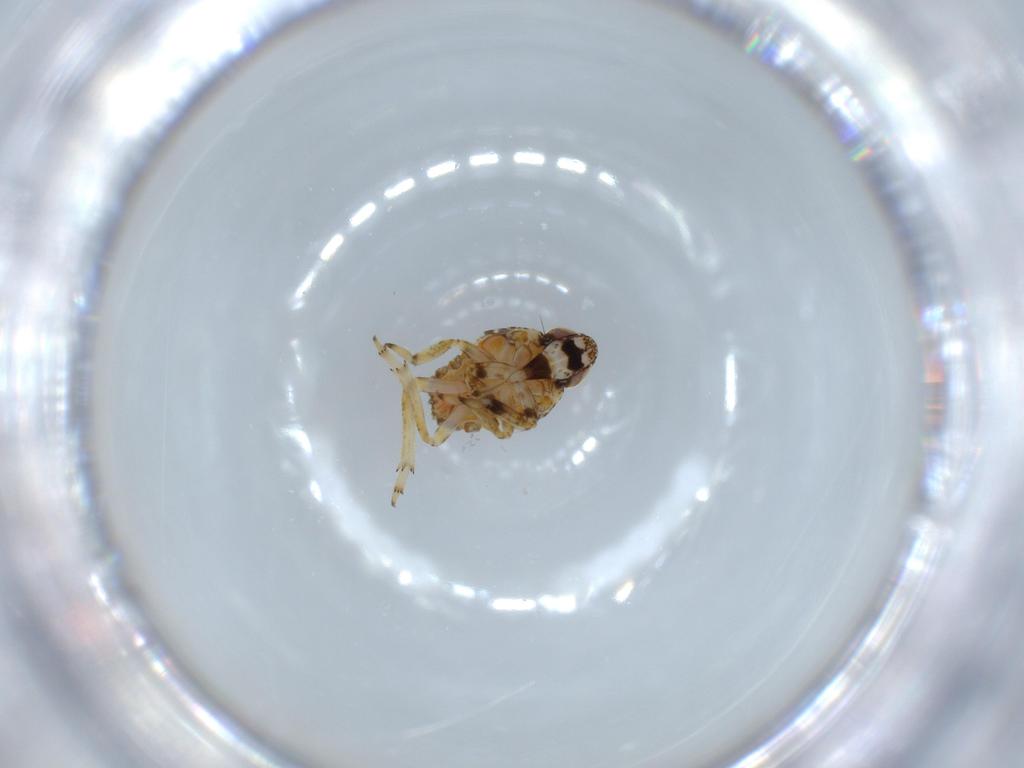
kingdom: Animalia
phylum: Arthropoda
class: Insecta
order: Hemiptera
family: Issidae
